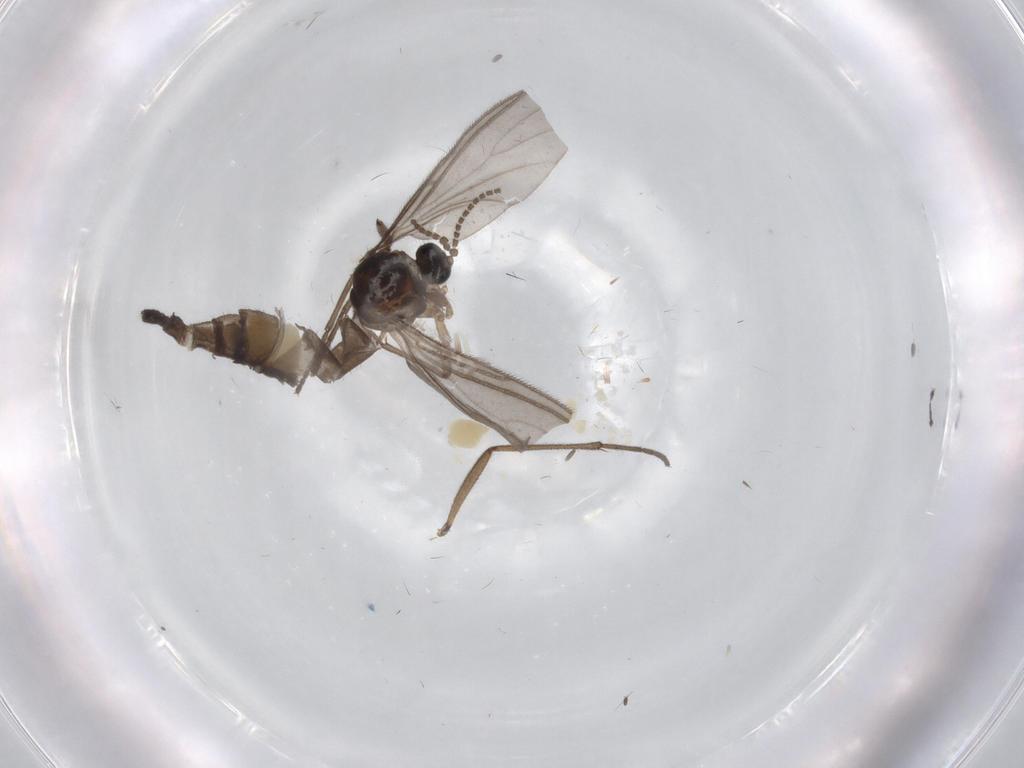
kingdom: Animalia
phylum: Arthropoda
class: Insecta
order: Diptera
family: Sciaridae
